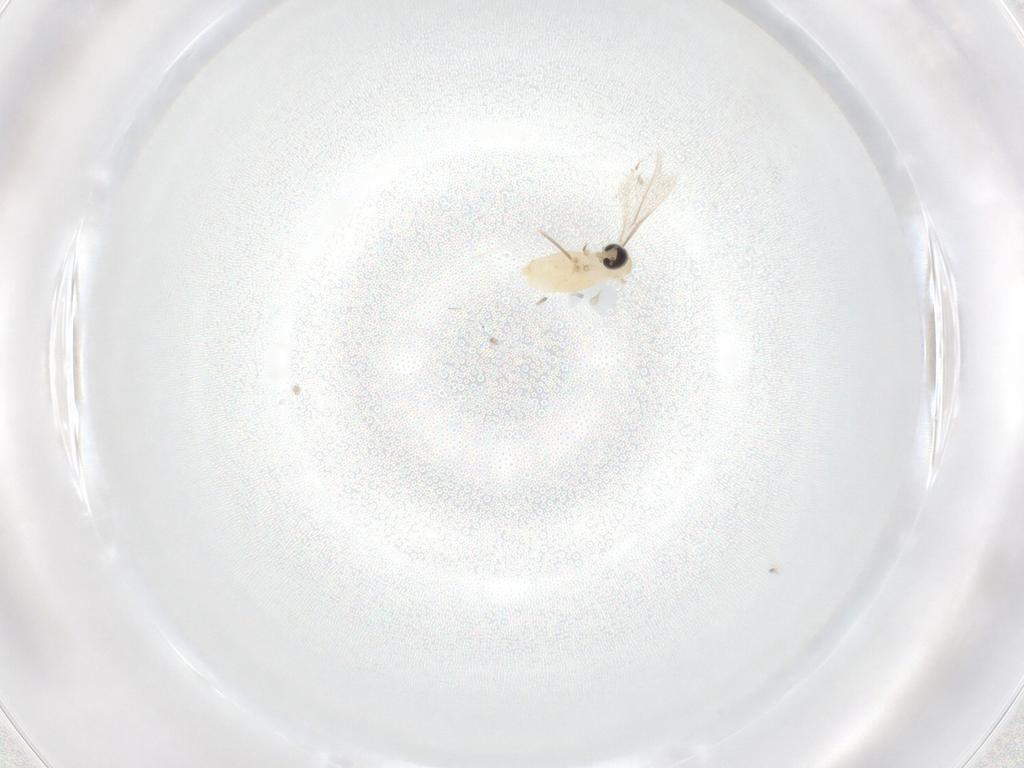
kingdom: Animalia
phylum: Arthropoda
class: Insecta
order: Diptera
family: Cecidomyiidae
